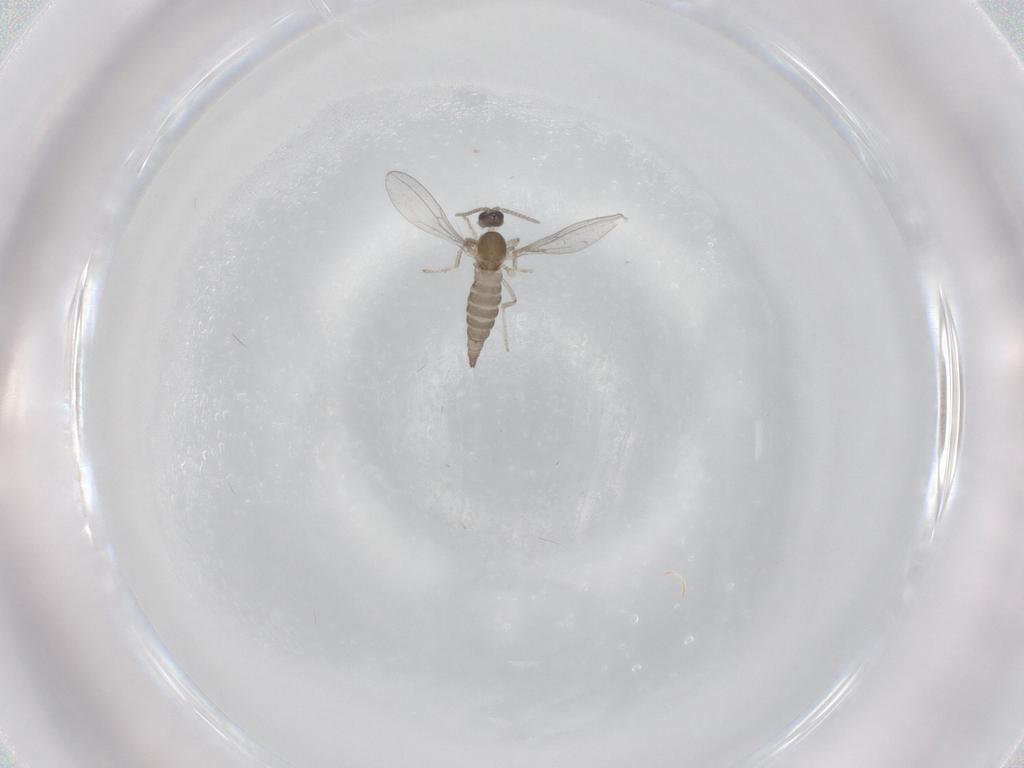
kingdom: Animalia
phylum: Arthropoda
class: Insecta
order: Diptera
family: Cecidomyiidae
